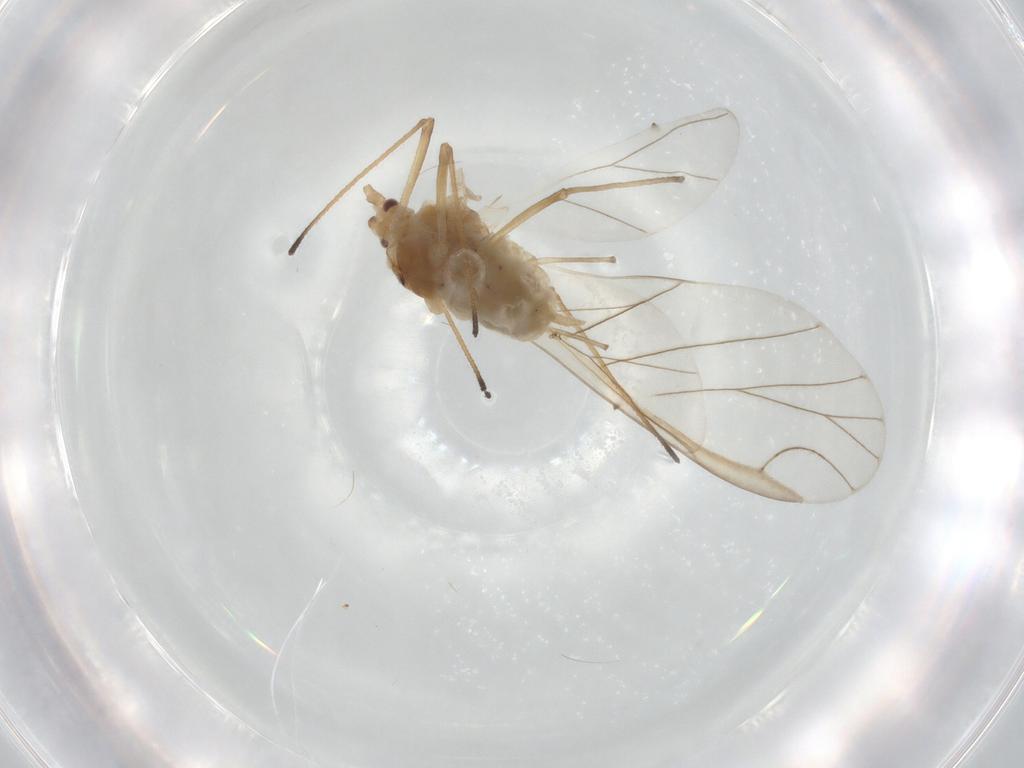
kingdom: Animalia
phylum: Arthropoda
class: Insecta
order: Hemiptera
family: Aphididae
